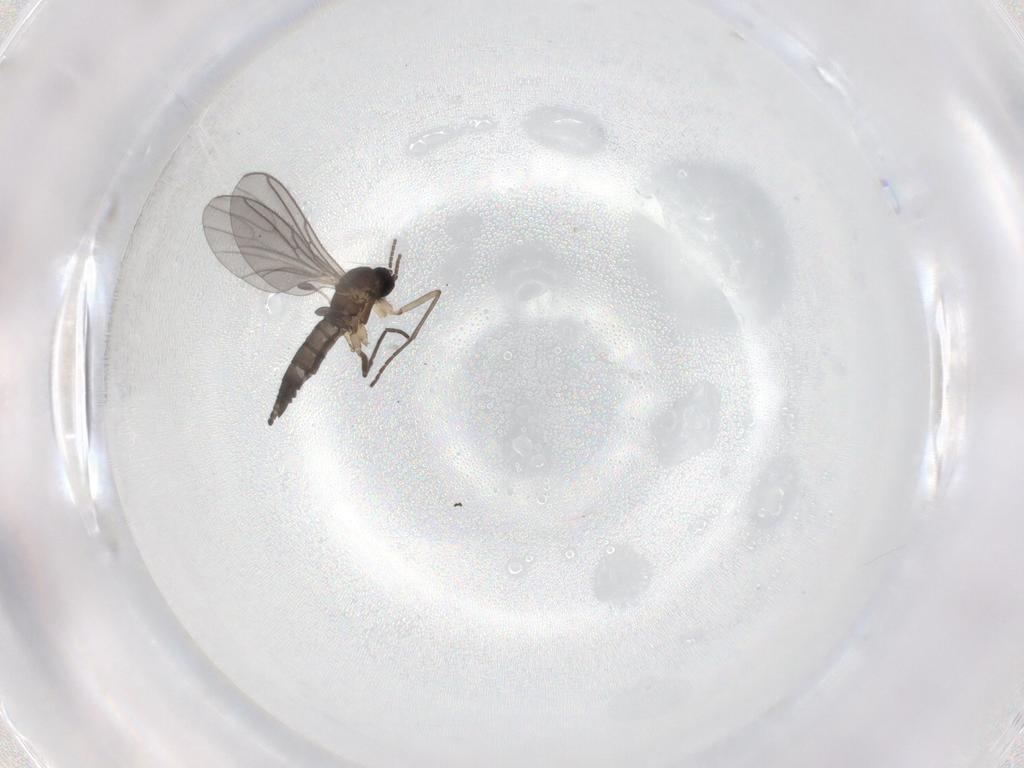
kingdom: Animalia
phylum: Arthropoda
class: Insecta
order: Diptera
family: Sciaridae
